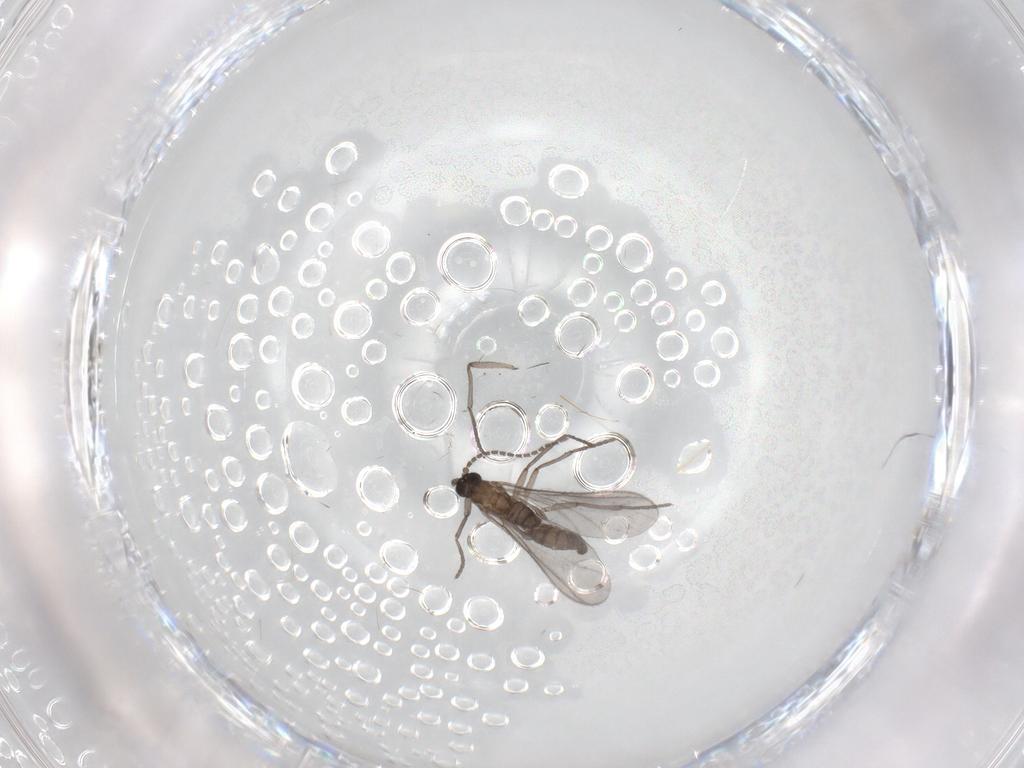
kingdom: Animalia
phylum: Arthropoda
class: Insecta
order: Diptera
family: Sciaridae
